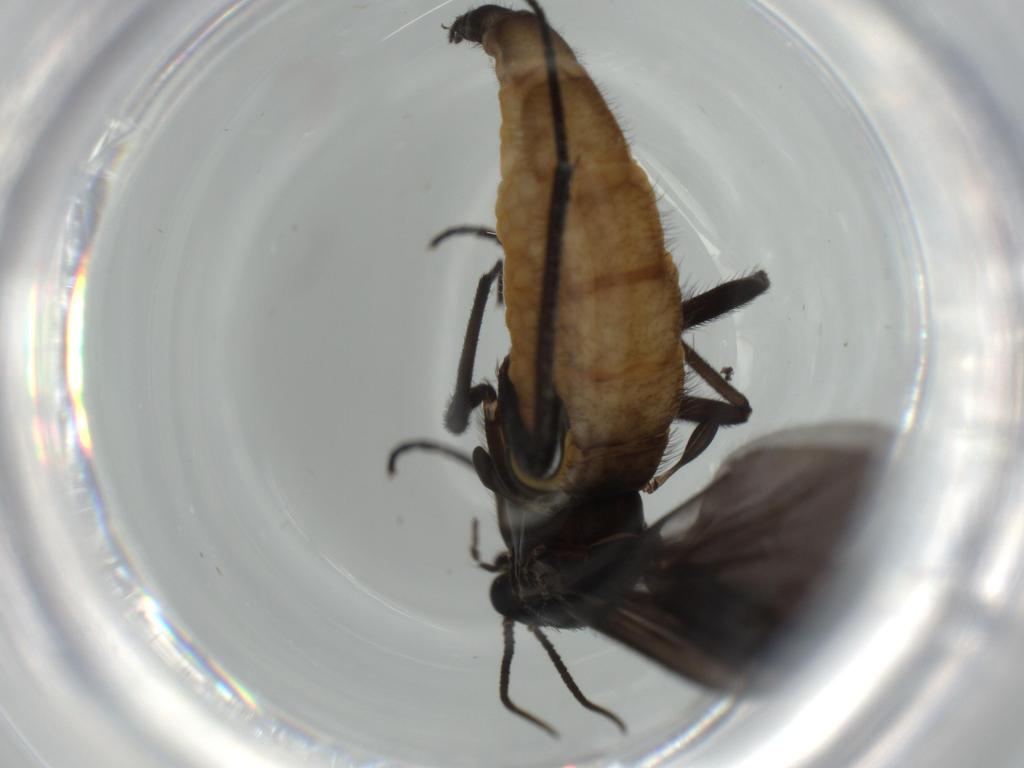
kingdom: Animalia
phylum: Arthropoda
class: Insecta
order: Diptera
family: Cecidomyiidae
